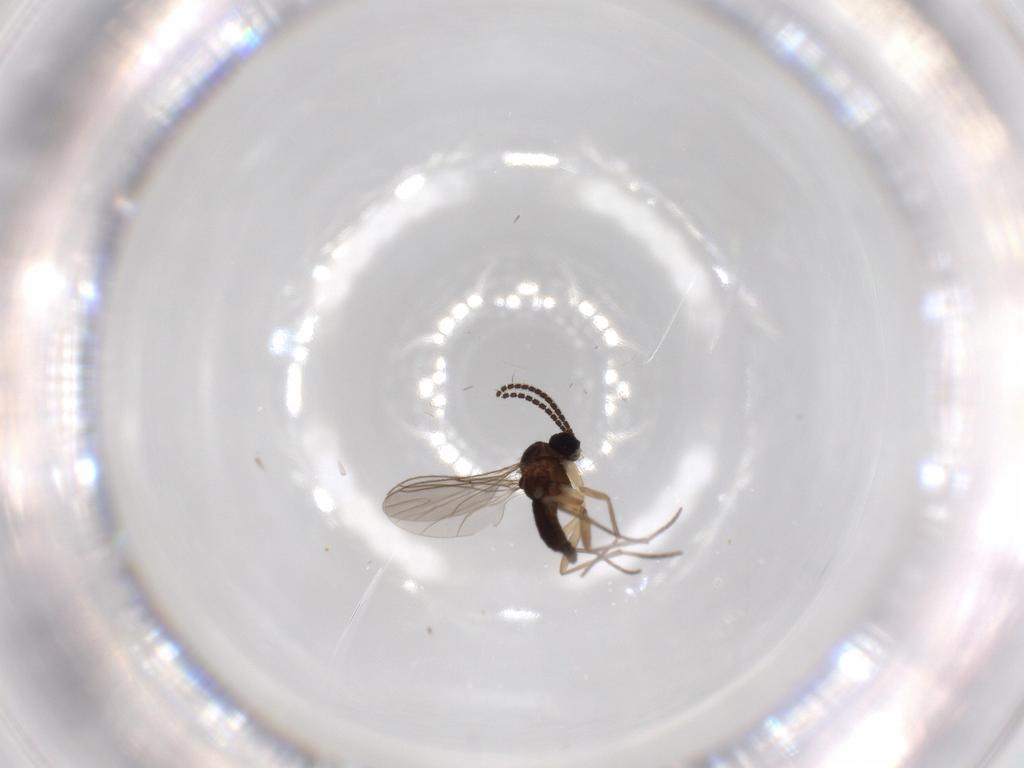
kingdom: Animalia
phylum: Arthropoda
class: Insecta
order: Diptera
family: Sciaridae
